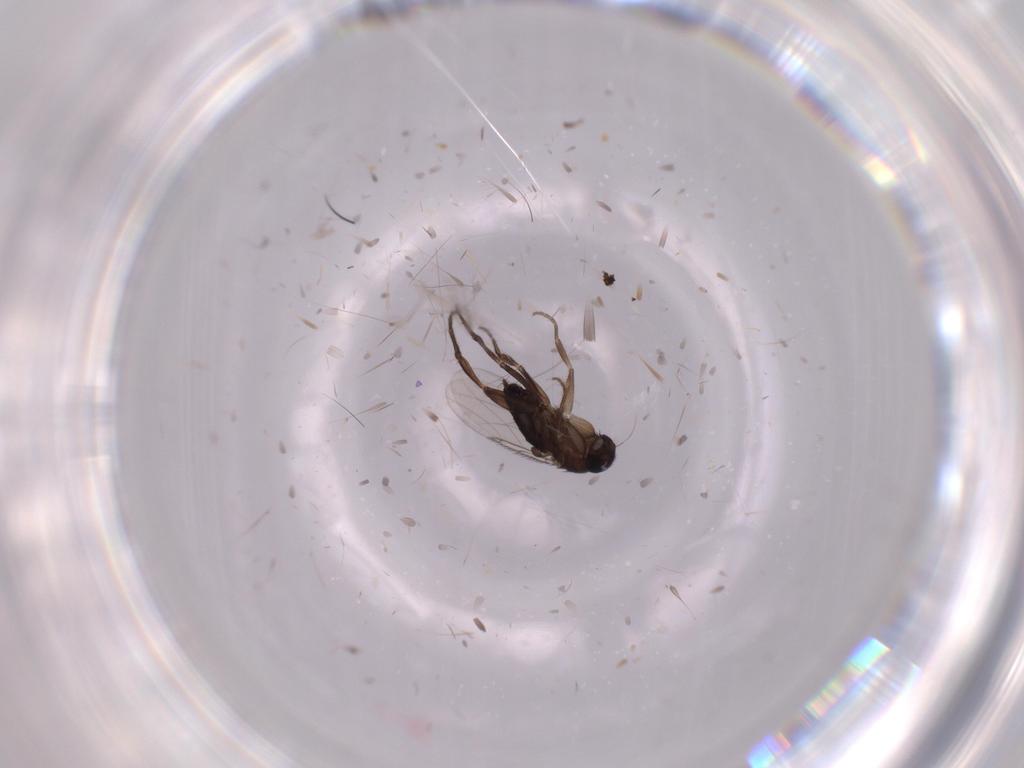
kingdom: Animalia
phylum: Arthropoda
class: Insecta
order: Diptera
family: Phoridae
